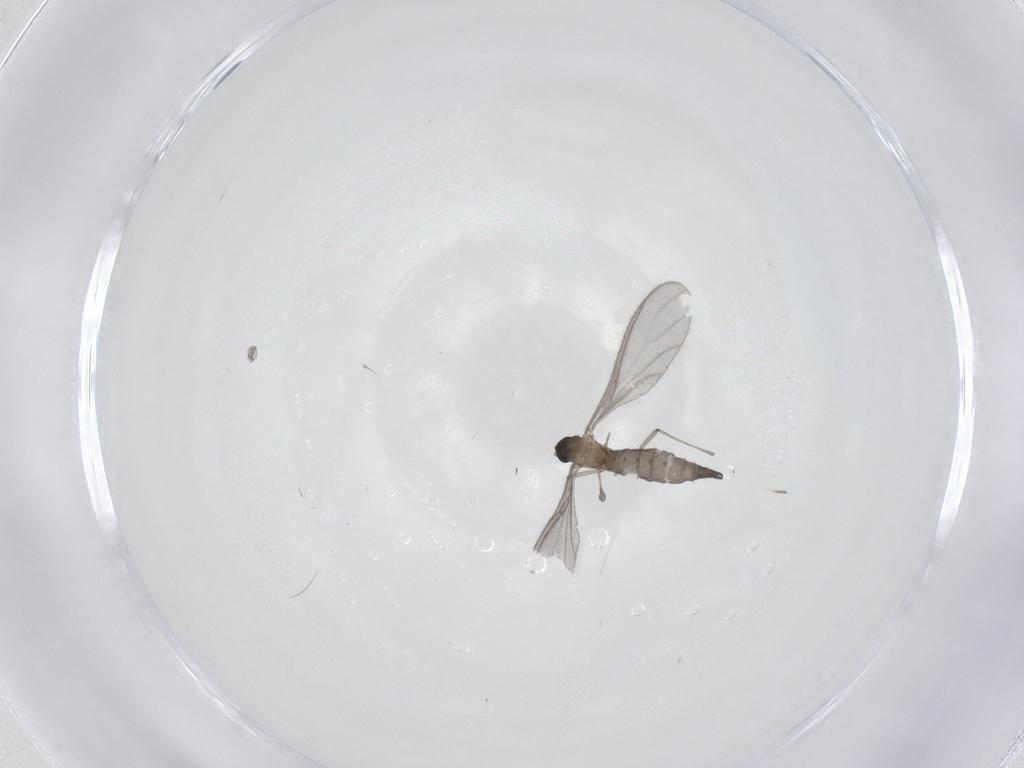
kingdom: Animalia
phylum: Arthropoda
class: Insecta
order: Diptera
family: Sciaridae
